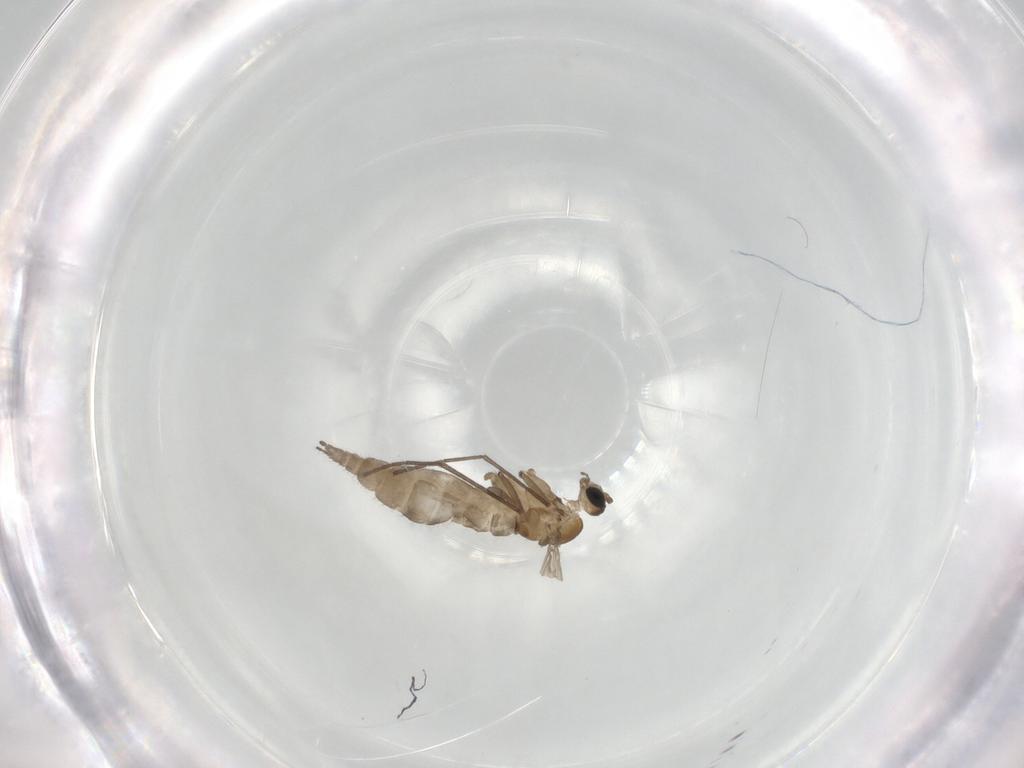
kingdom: Animalia
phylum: Arthropoda
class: Insecta
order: Diptera
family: Sciaridae
